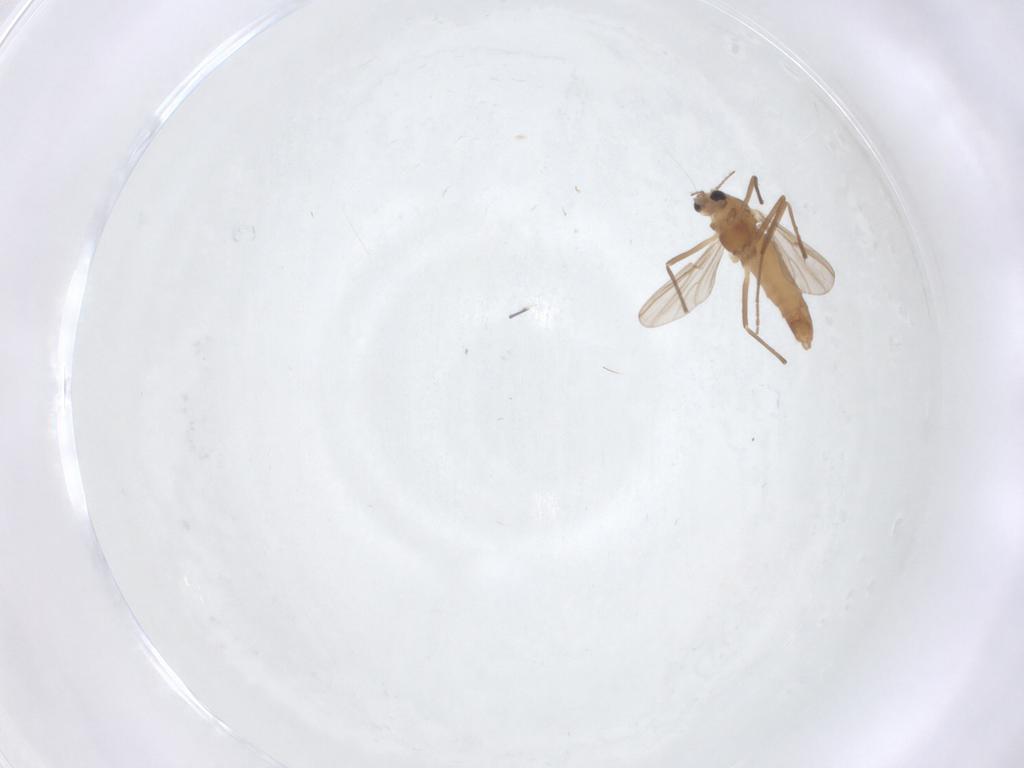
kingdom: Animalia
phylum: Arthropoda
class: Insecta
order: Diptera
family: Chironomidae
